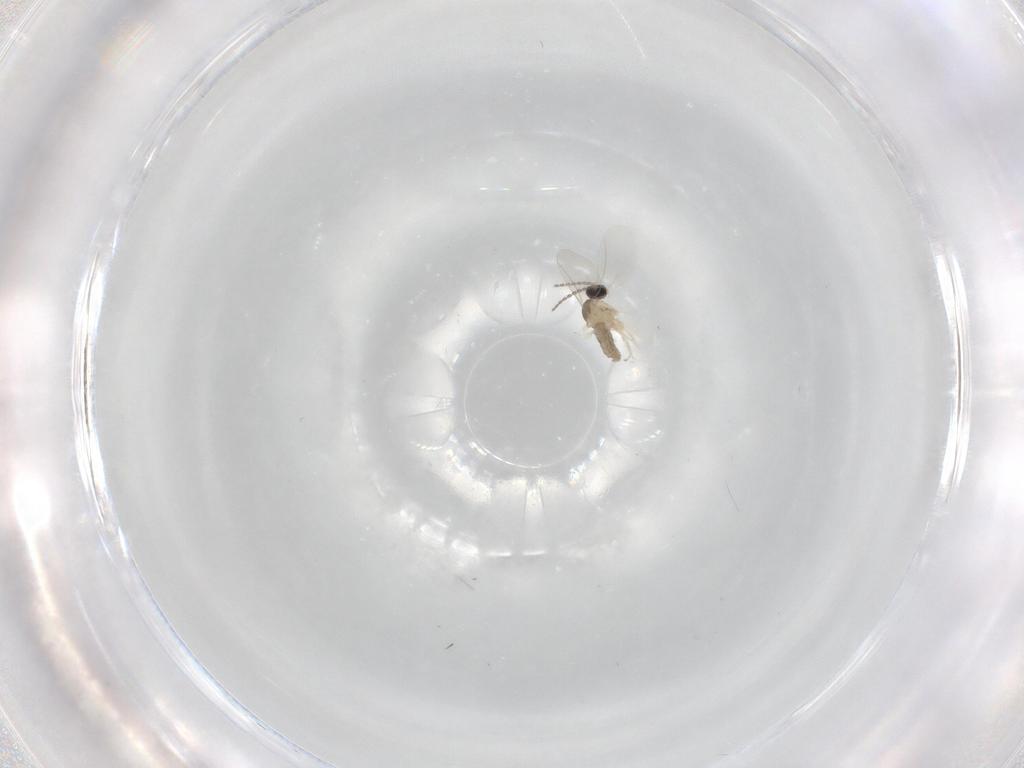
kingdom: Animalia
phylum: Arthropoda
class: Insecta
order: Diptera
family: Cecidomyiidae
